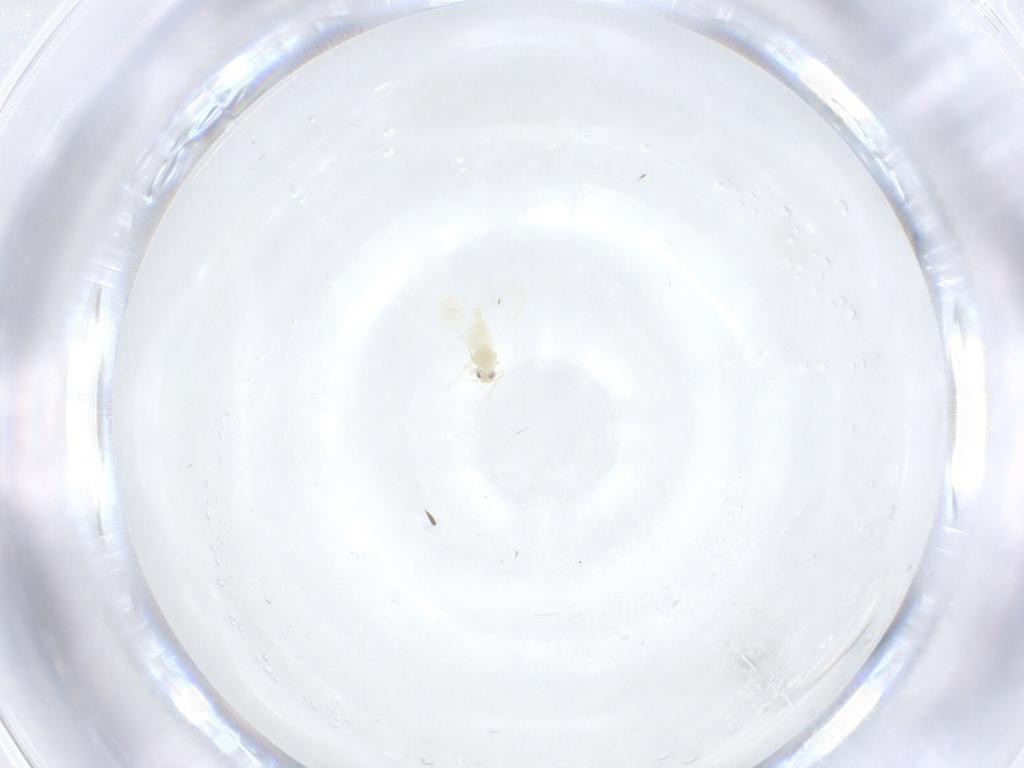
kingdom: Animalia
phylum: Arthropoda
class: Insecta
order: Hemiptera
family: Aleyrodidae
